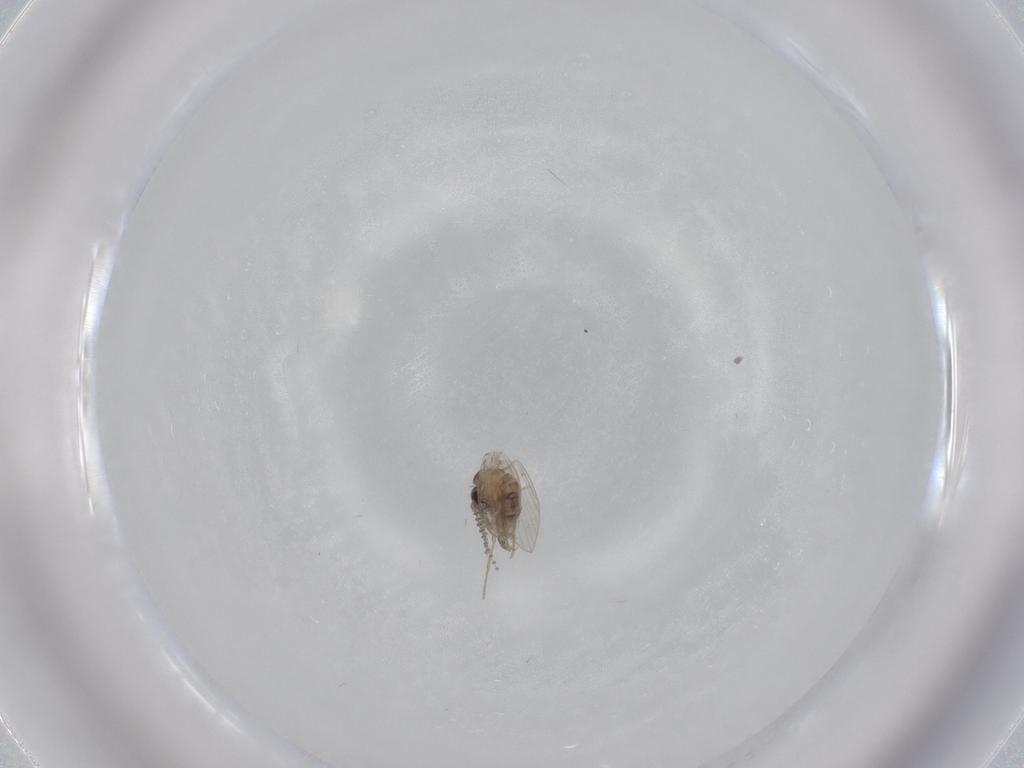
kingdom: Animalia
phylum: Arthropoda
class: Insecta
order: Diptera
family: Psychodidae
